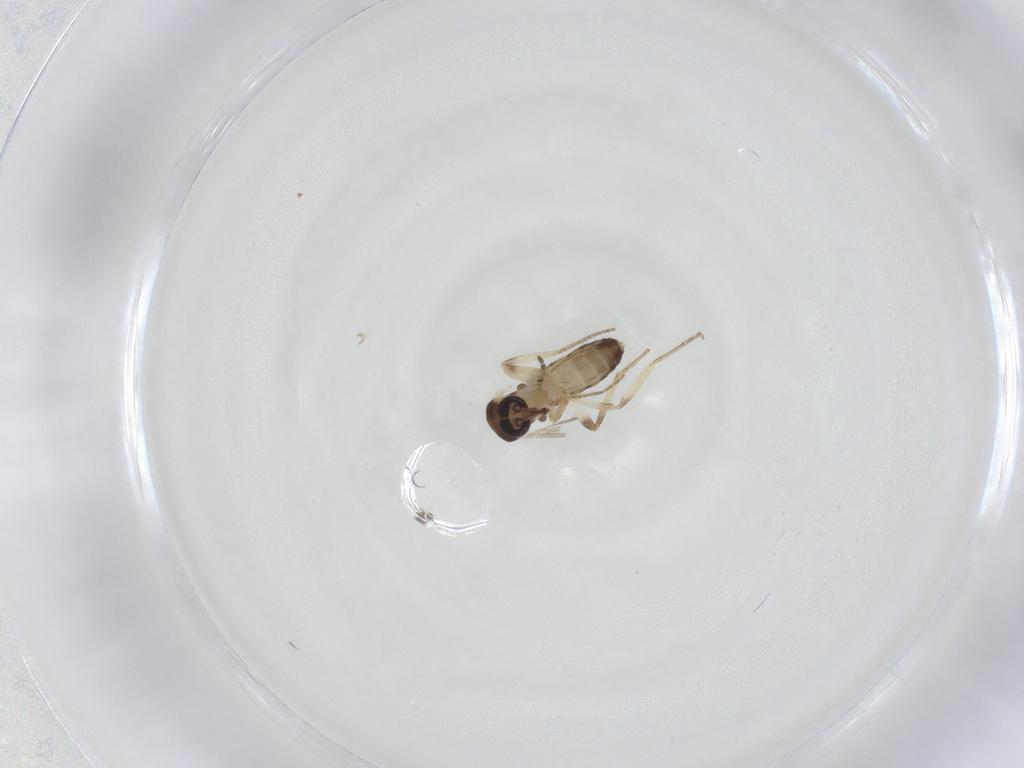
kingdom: Animalia
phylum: Arthropoda
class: Insecta
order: Diptera
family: Sciaridae
